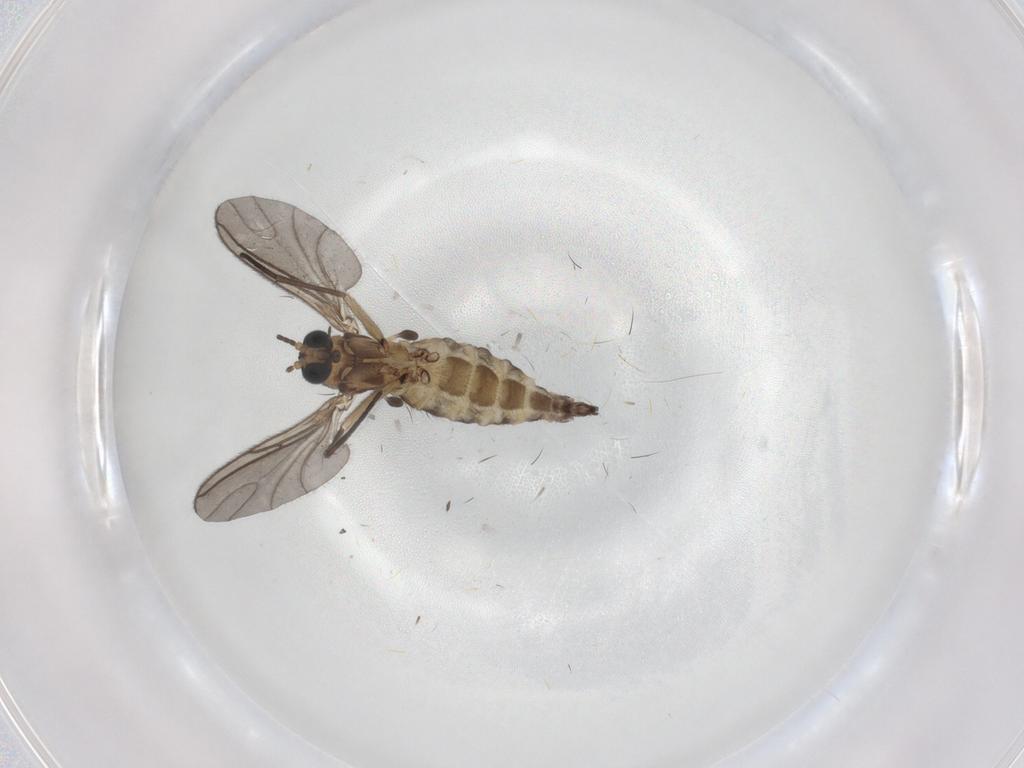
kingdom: Animalia
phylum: Arthropoda
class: Insecta
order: Diptera
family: Sciaridae
